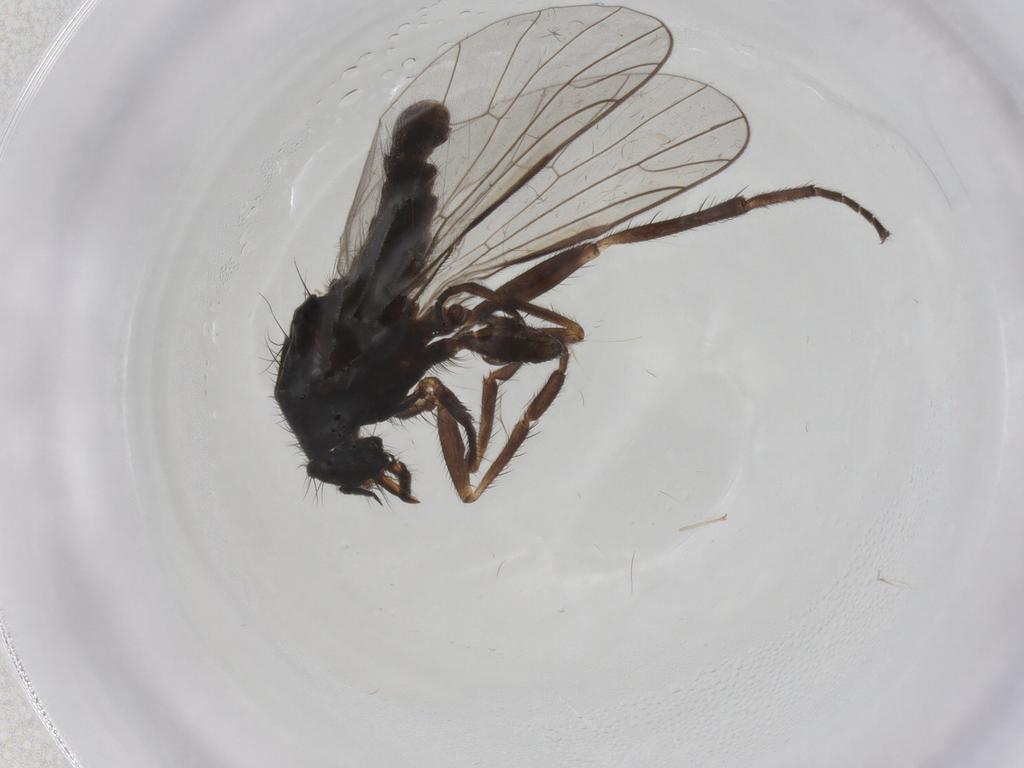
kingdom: Animalia
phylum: Arthropoda
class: Insecta
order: Diptera
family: Empididae
